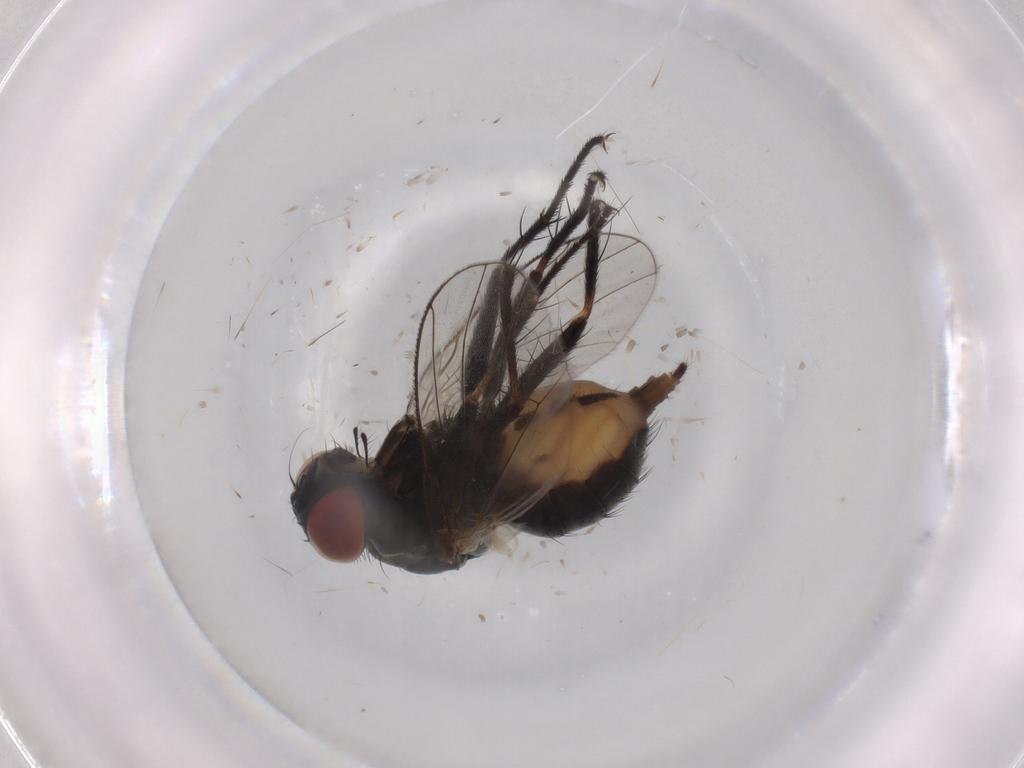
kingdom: Animalia
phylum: Arthropoda
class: Insecta
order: Diptera
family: Muscidae
